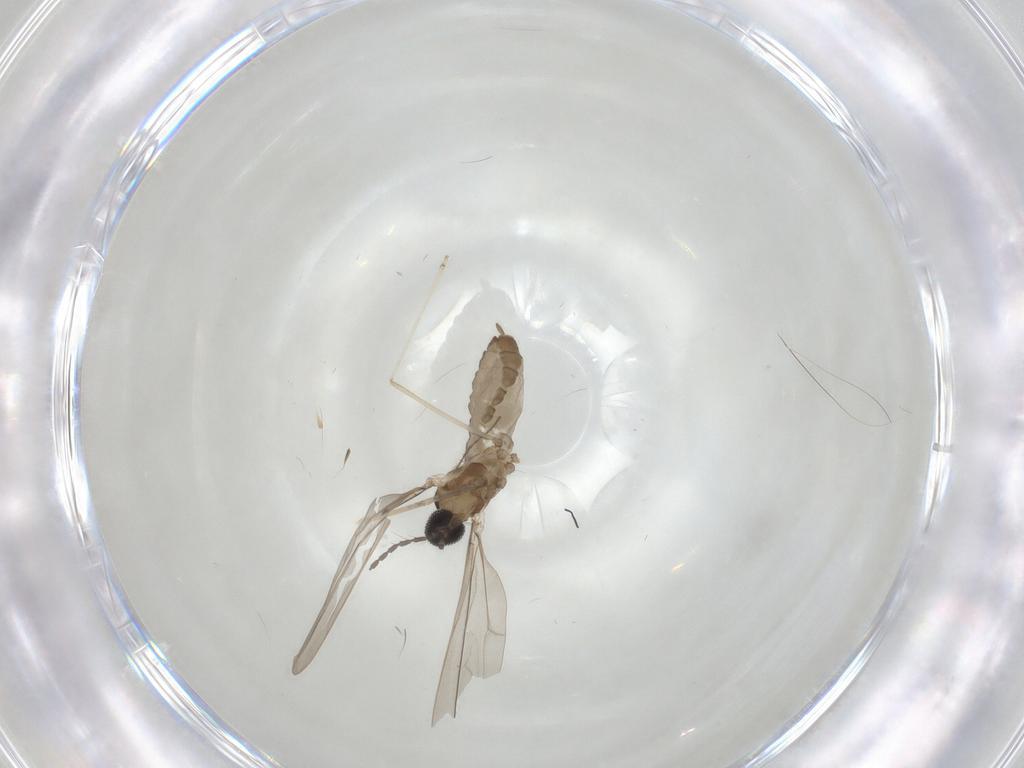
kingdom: Animalia
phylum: Arthropoda
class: Insecta
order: Diptera
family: Cecidomyiidae
